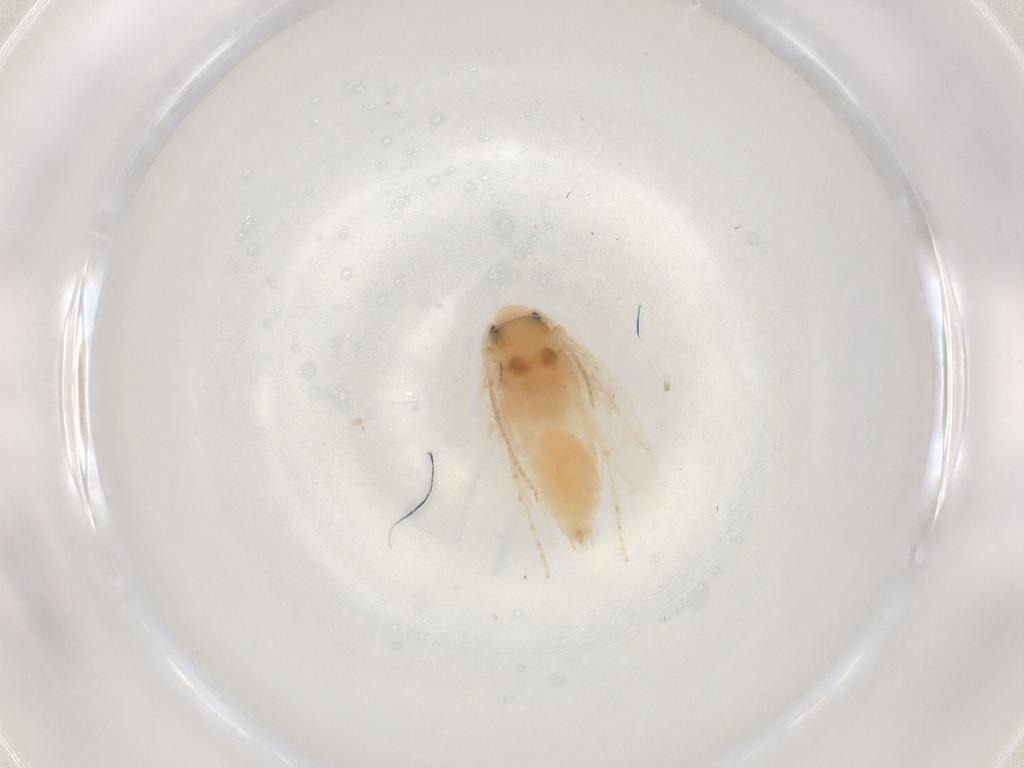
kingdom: Animalia
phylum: Arthropoda
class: Insecta
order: Lepidoptera
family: Gracillariidae
